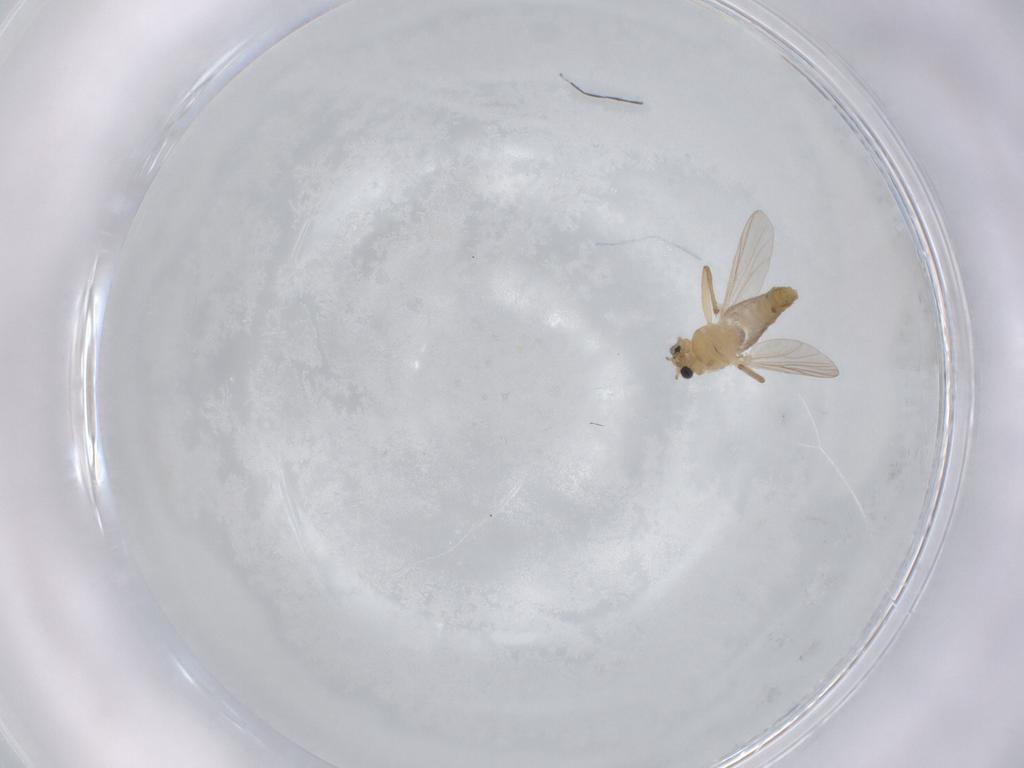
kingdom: Animalia
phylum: Arthropoda
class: Insecta
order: Diptera
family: Chironomidae
